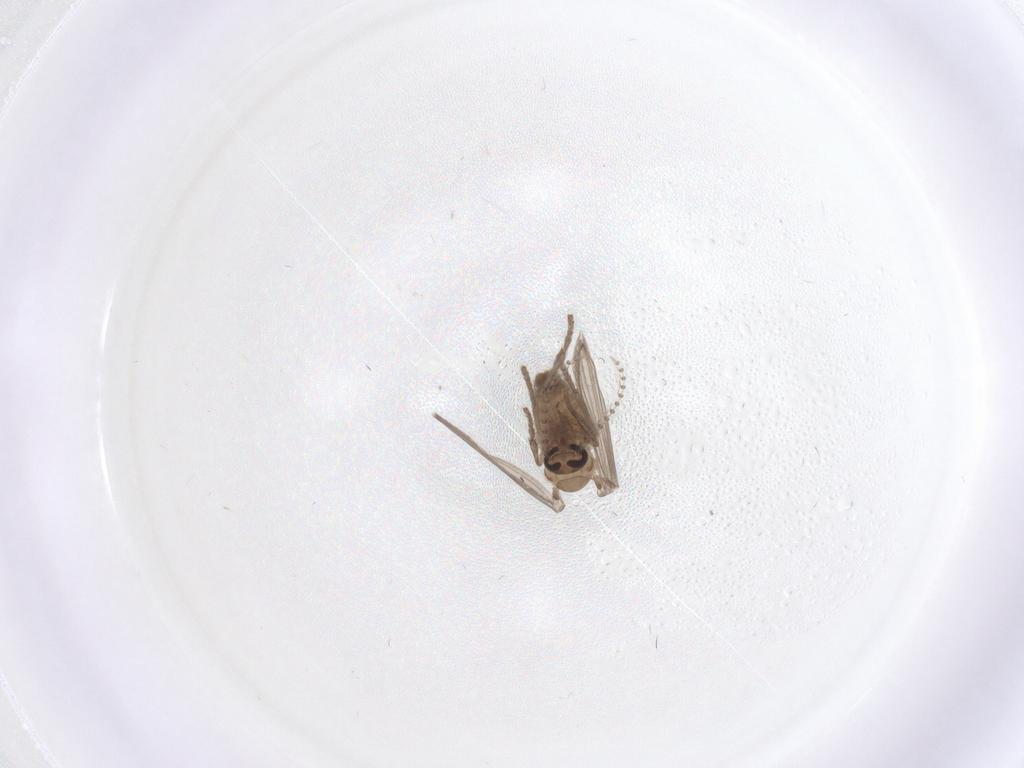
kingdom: Animalia
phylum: Arthropoda
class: Insecta
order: Diptera
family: Psychodidae
